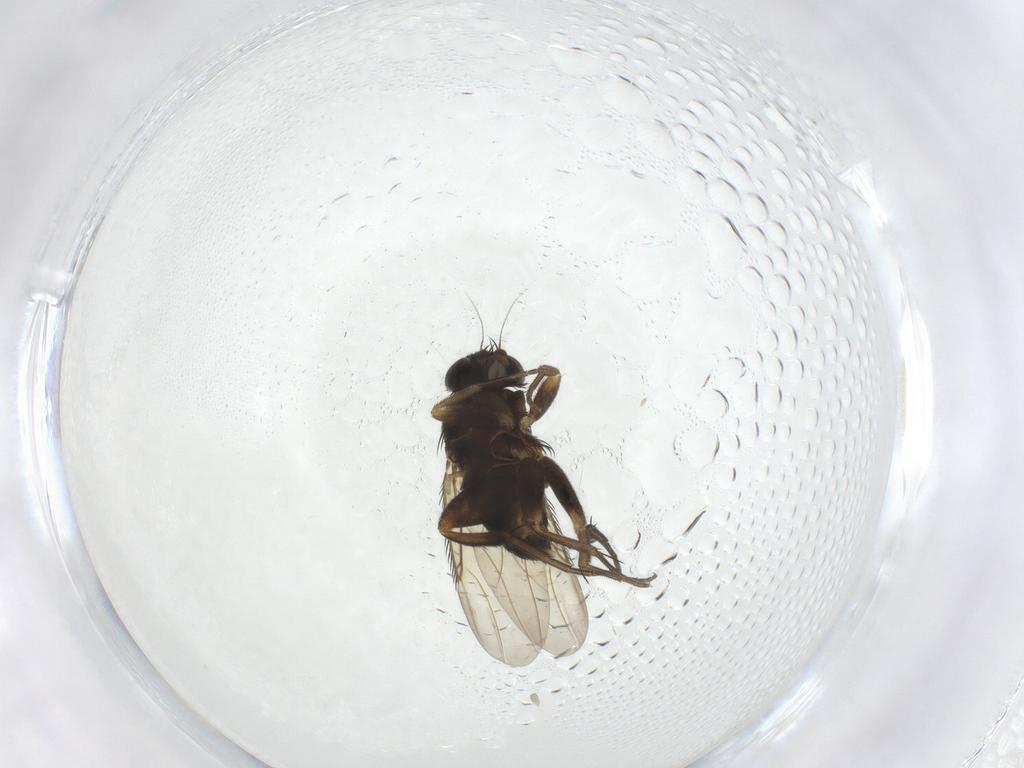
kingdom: Animalia
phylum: Arthropoda
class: Insecta
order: Diptera
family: Phoridae
